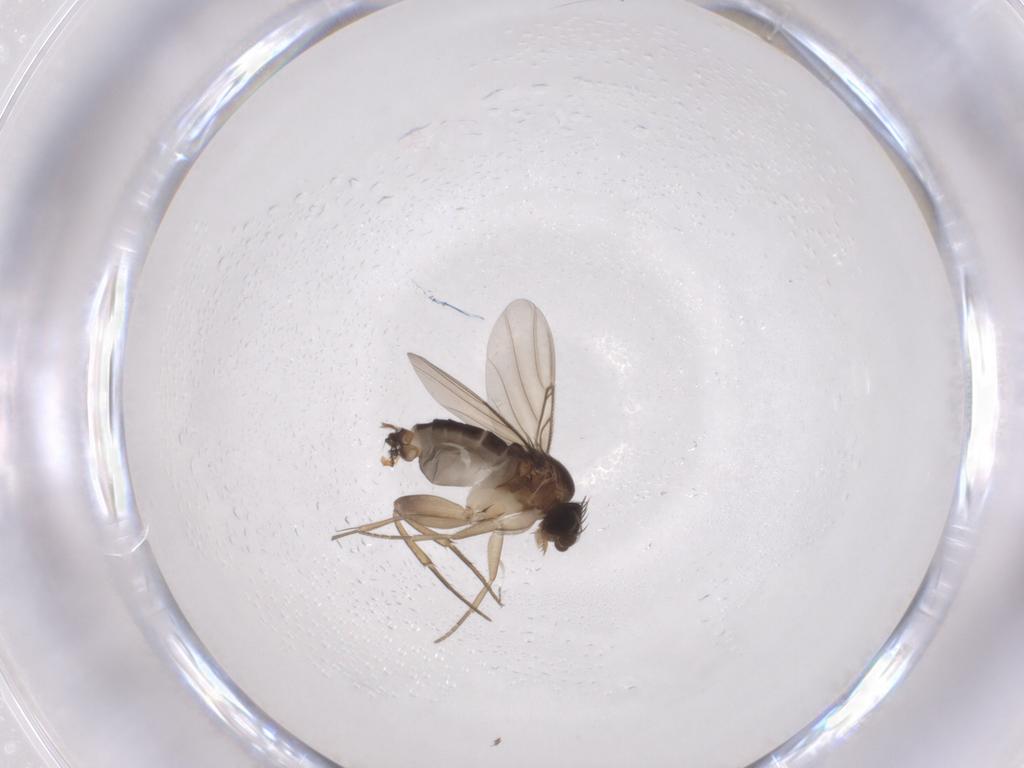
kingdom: Animalia
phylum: Arthropoda
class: Insecta
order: Diptera
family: Phoridae
